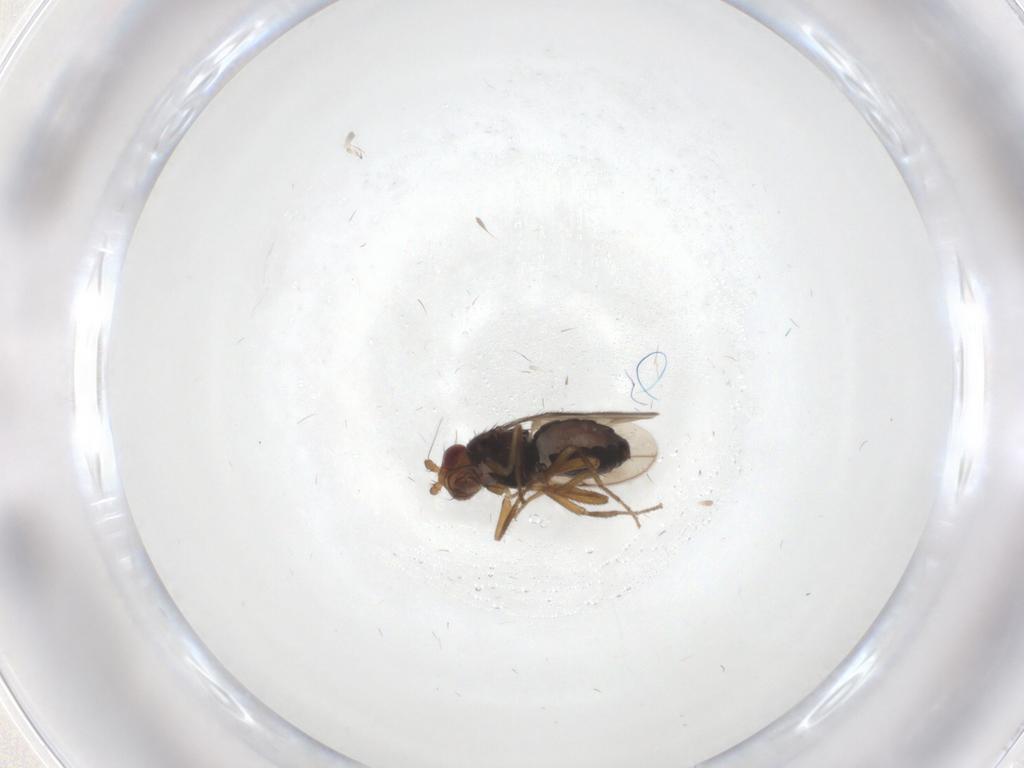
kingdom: Animalia
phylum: Arthropoda
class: Insecta
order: Diptera
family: Sphaeroceridae
